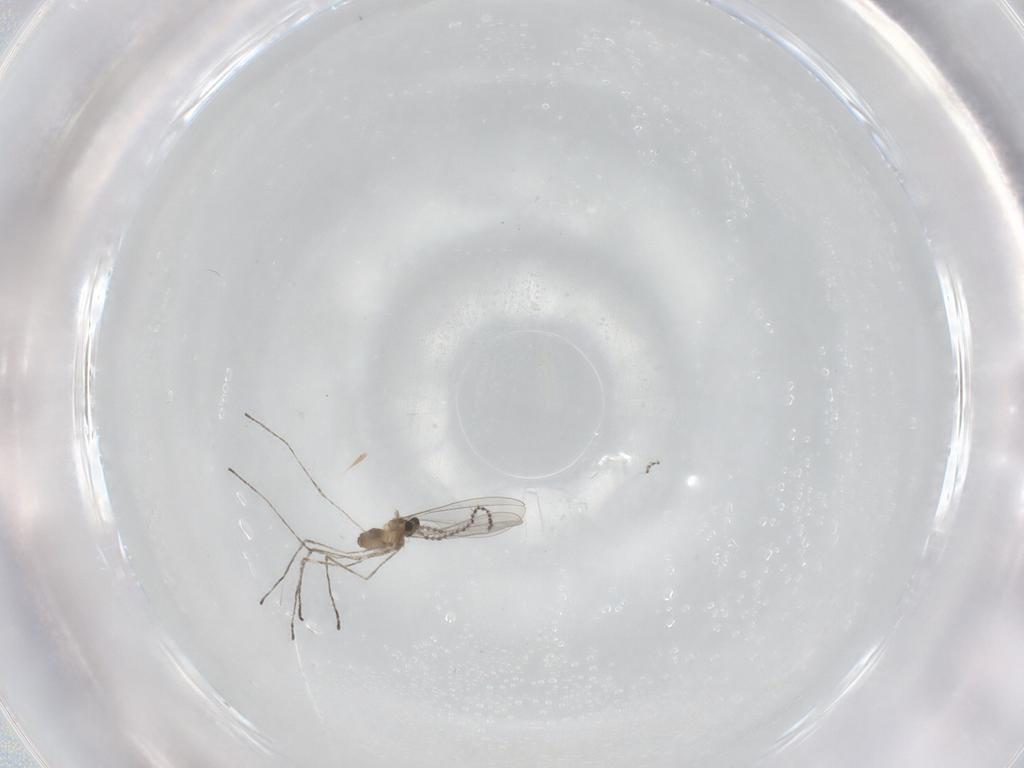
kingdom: Animalia
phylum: Arthropoda
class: Insecta
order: Diptera
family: Cecidomyiidae
